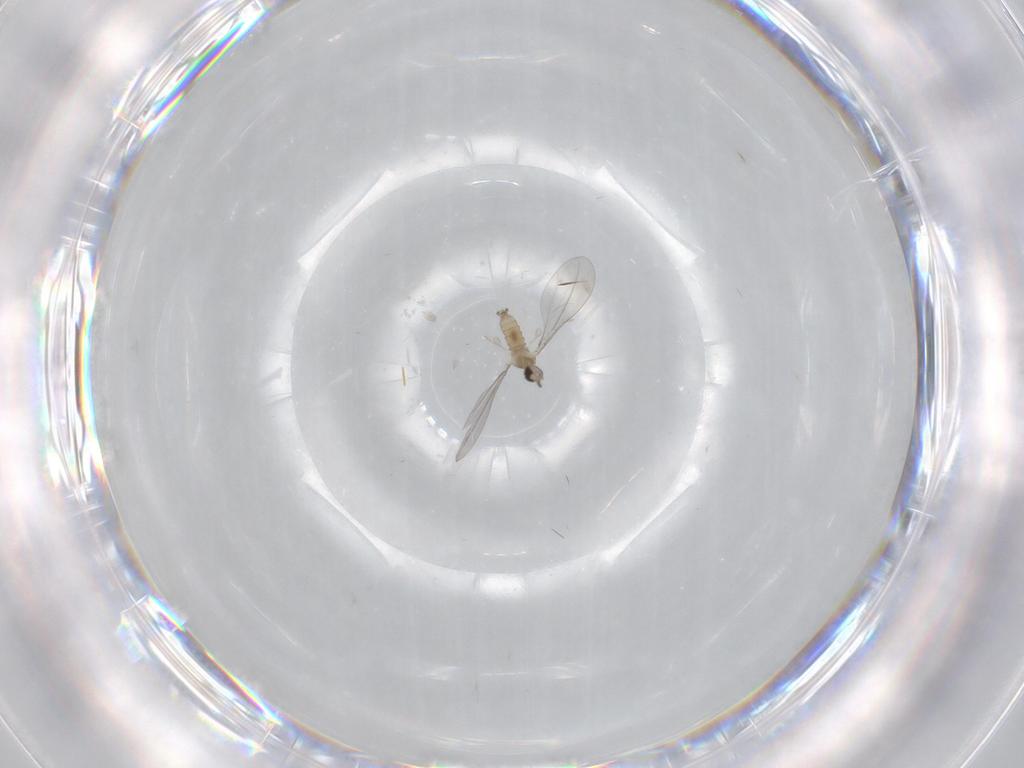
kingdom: Animalia
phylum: Arthropoda
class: Insecta
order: Diptera
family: Cecidomyiidae
